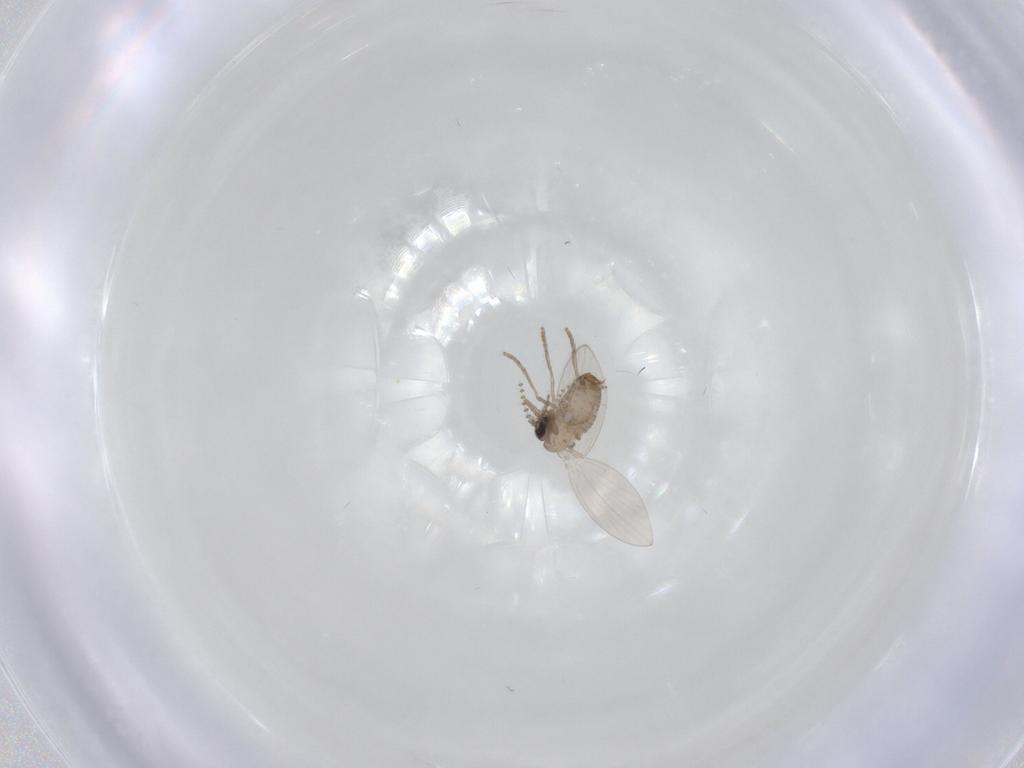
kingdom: Animalia
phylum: Arthropoda
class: Insecta
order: Diptera
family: Psychodidae
